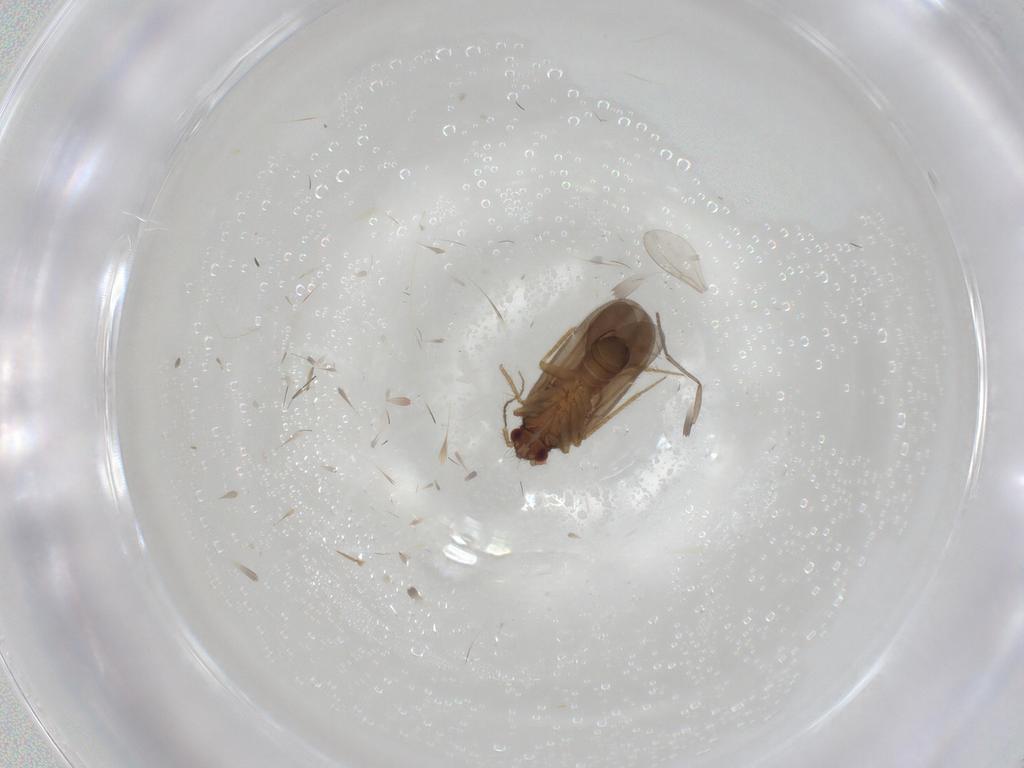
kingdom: Animalia
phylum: Arthropoda
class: Insecta
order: Hemiptera
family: Ceratocombidae
